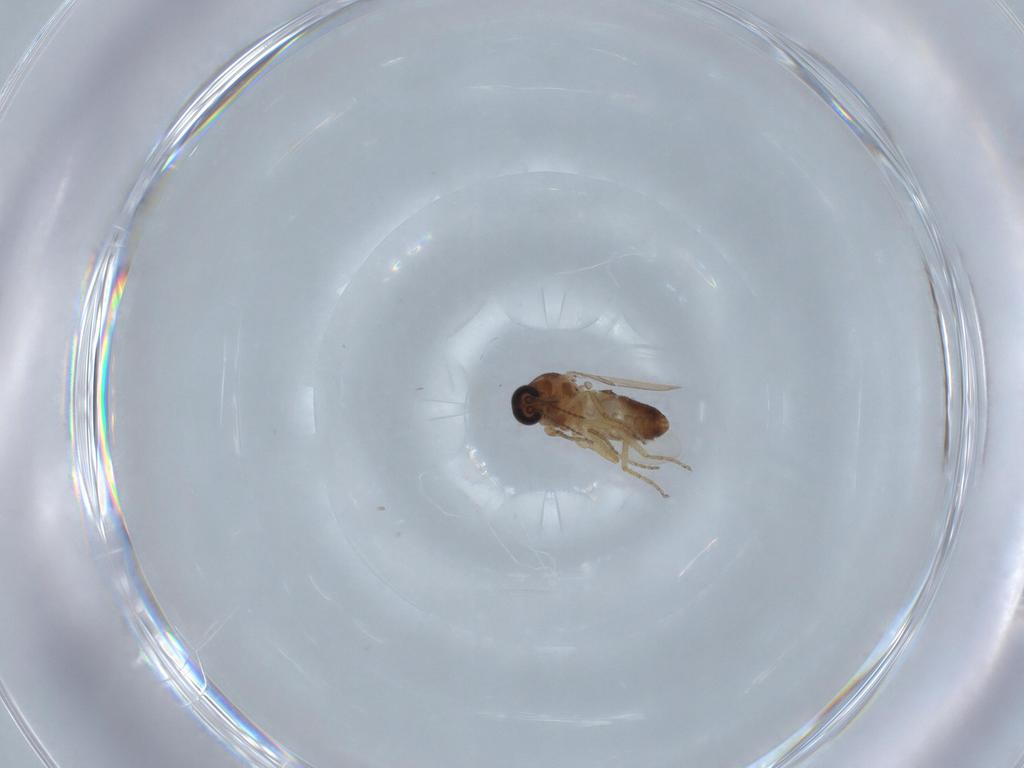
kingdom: Animalia
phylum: Arthropoda
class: Insecta
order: Diptera
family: Ceratopogonidae
